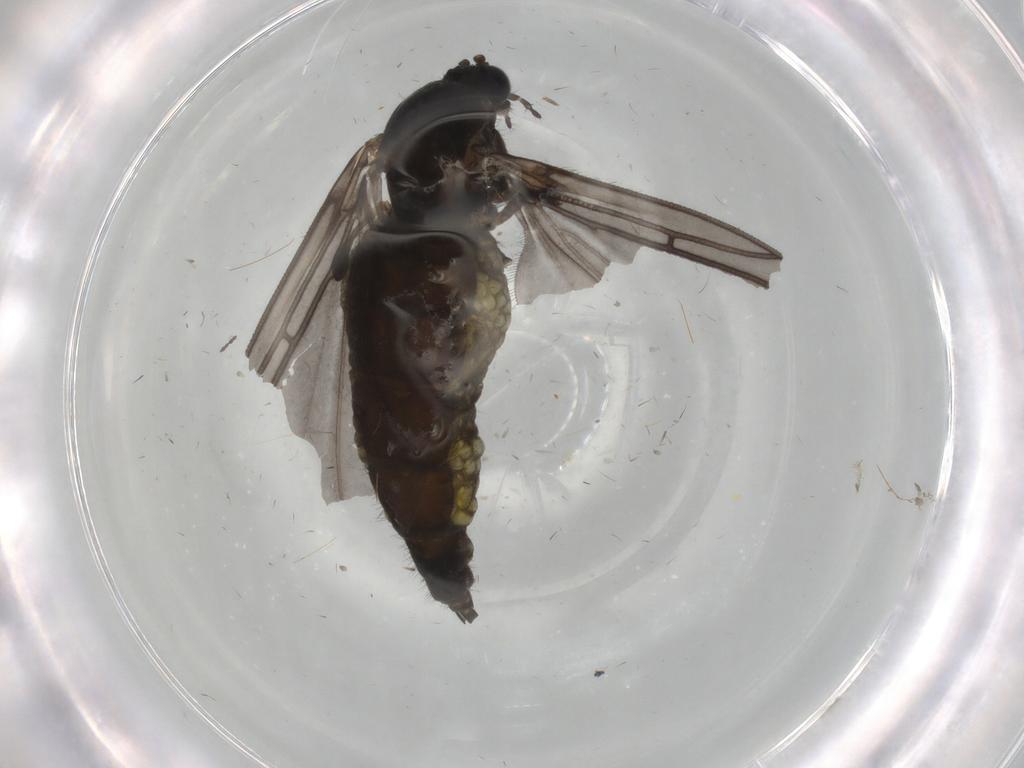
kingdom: Animalia
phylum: Arthropoda
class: Insecta
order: Diptera
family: Sciaridae
